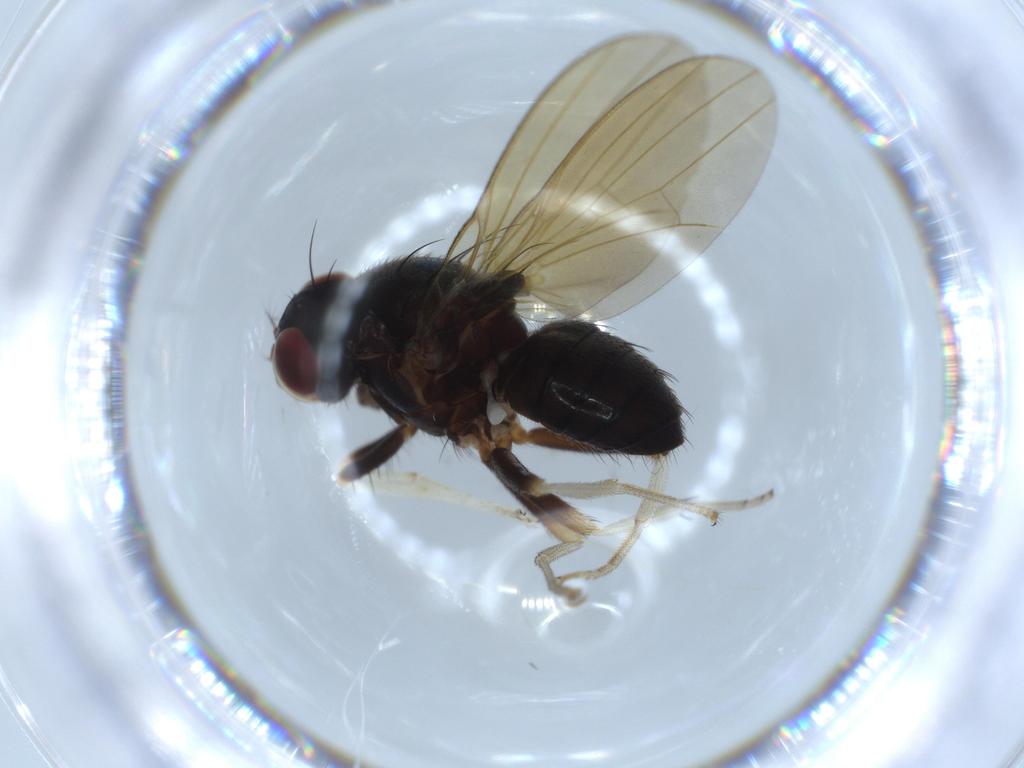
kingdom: Animalia
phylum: Arthropoda
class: Insecta
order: Diptera
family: Lauxaniidae
